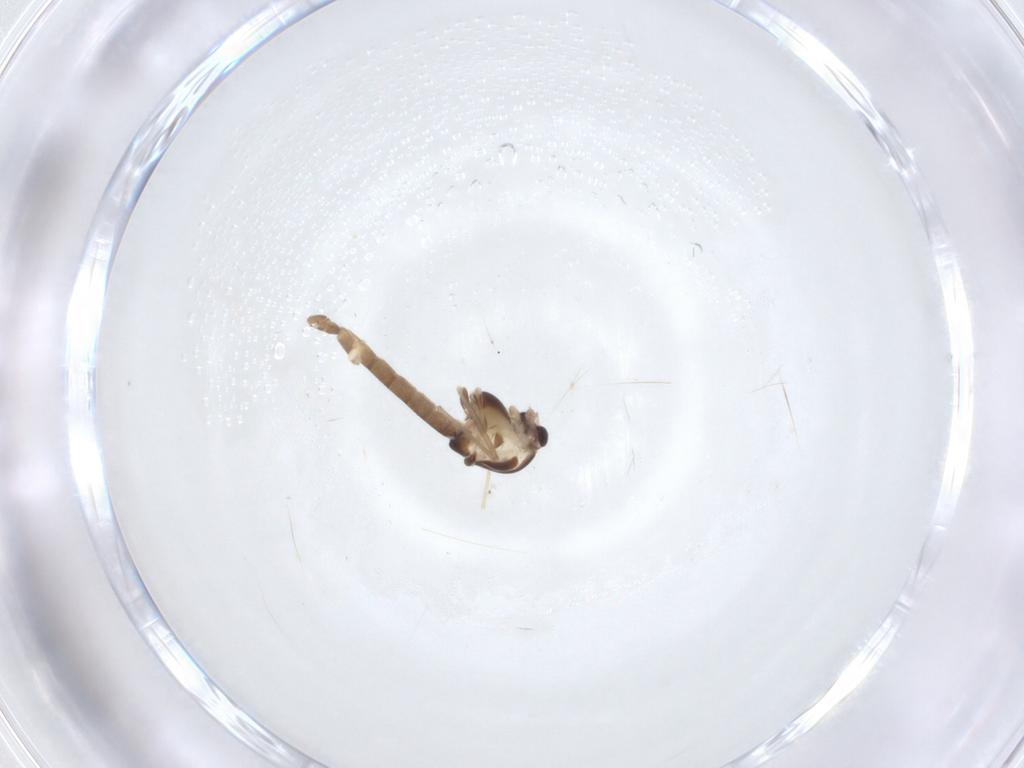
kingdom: Animalia
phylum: Arthropoda
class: Insecta
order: Diptera
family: Chironomidae
